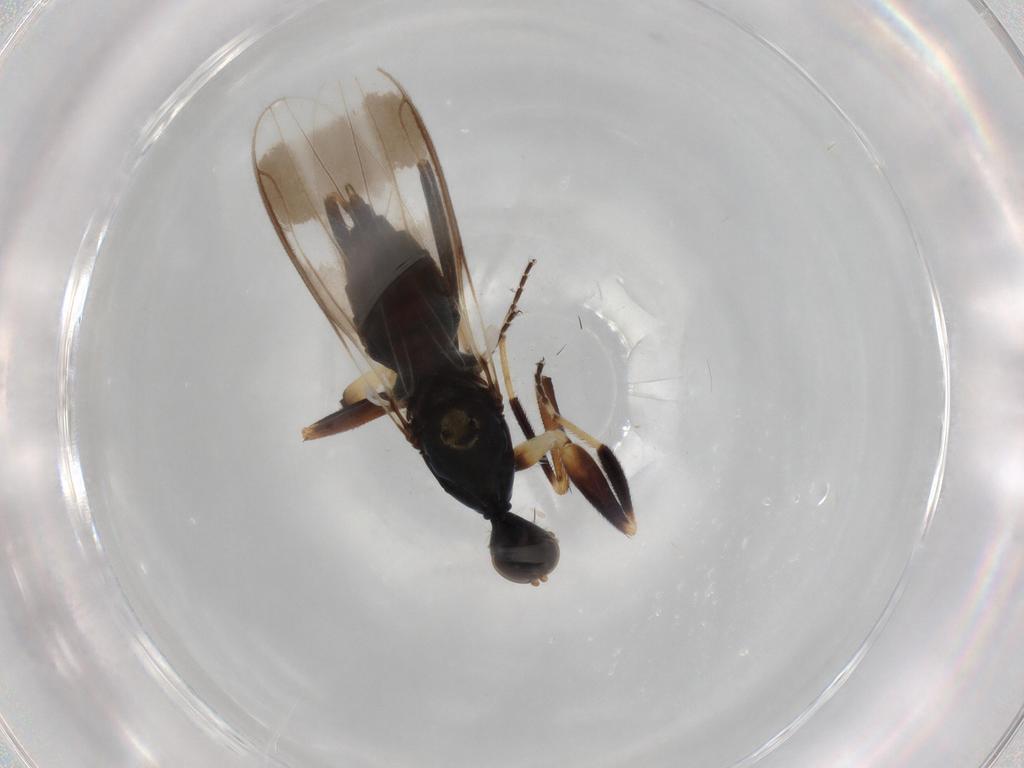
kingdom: Animalia
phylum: Arthropoda
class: Insecta
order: Diptera
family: Hybotidae
